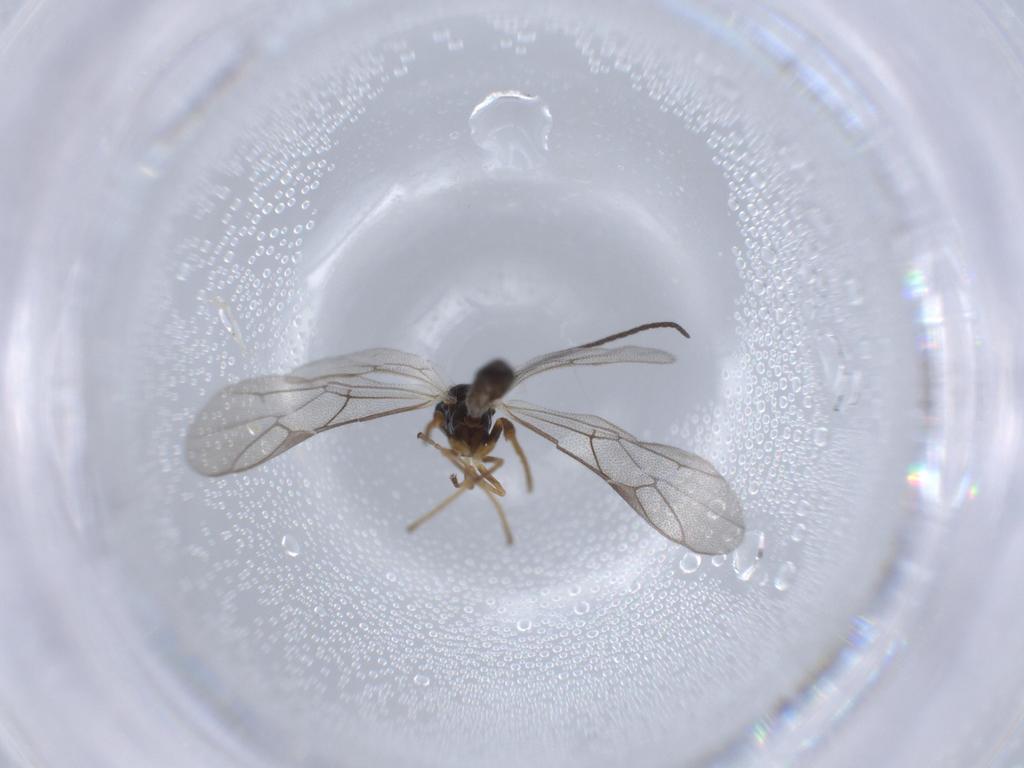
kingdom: Animalia
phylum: Arthropoda
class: Insecta
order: Hymenoptera
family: Ichneumonidae
